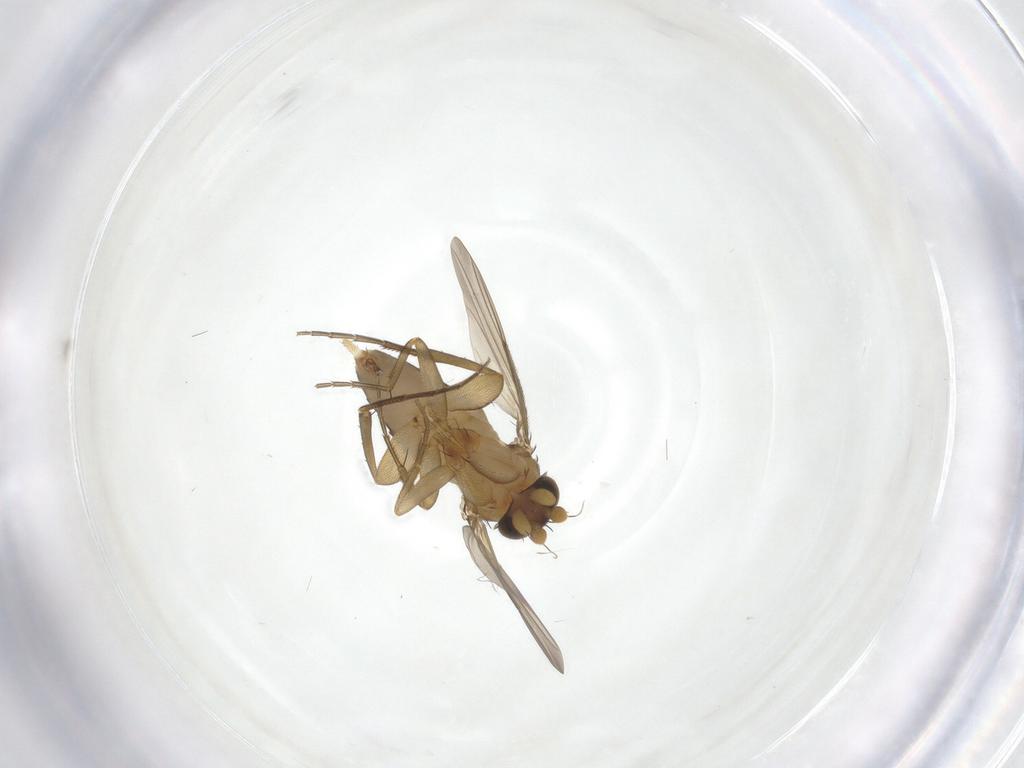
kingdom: Animalia
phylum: Arthropoda
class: Insecta
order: Diptera
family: Phoridae
